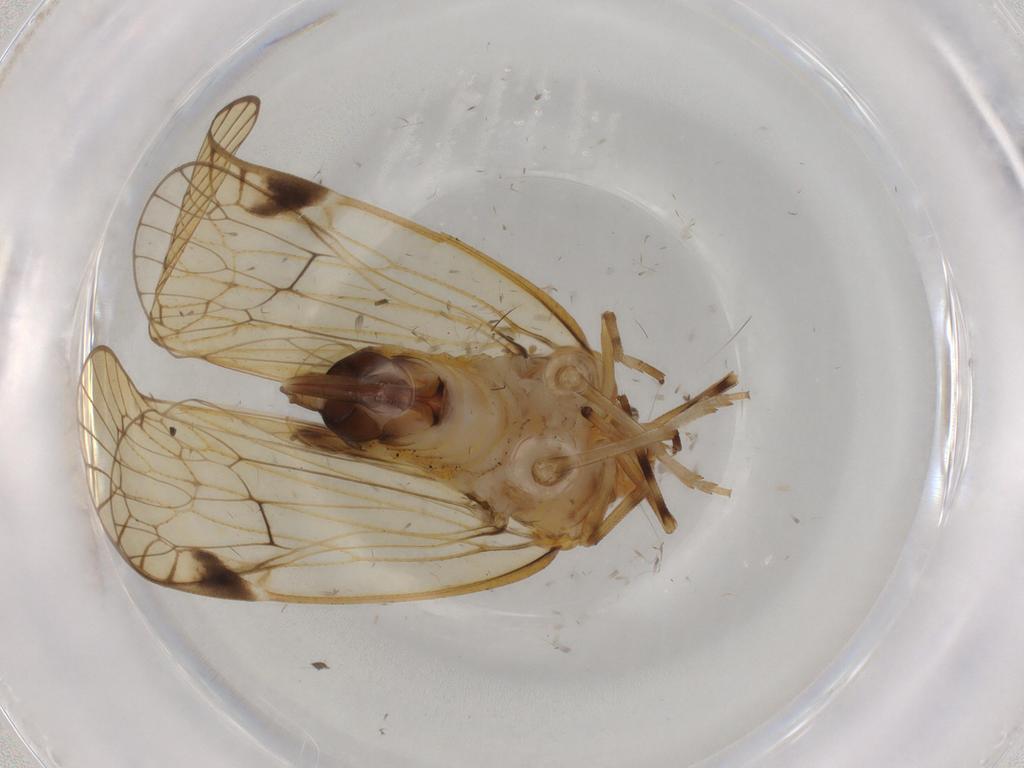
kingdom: Animalia
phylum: Arthropoda
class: Insecta
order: Hemiptera
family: Cixiidae
